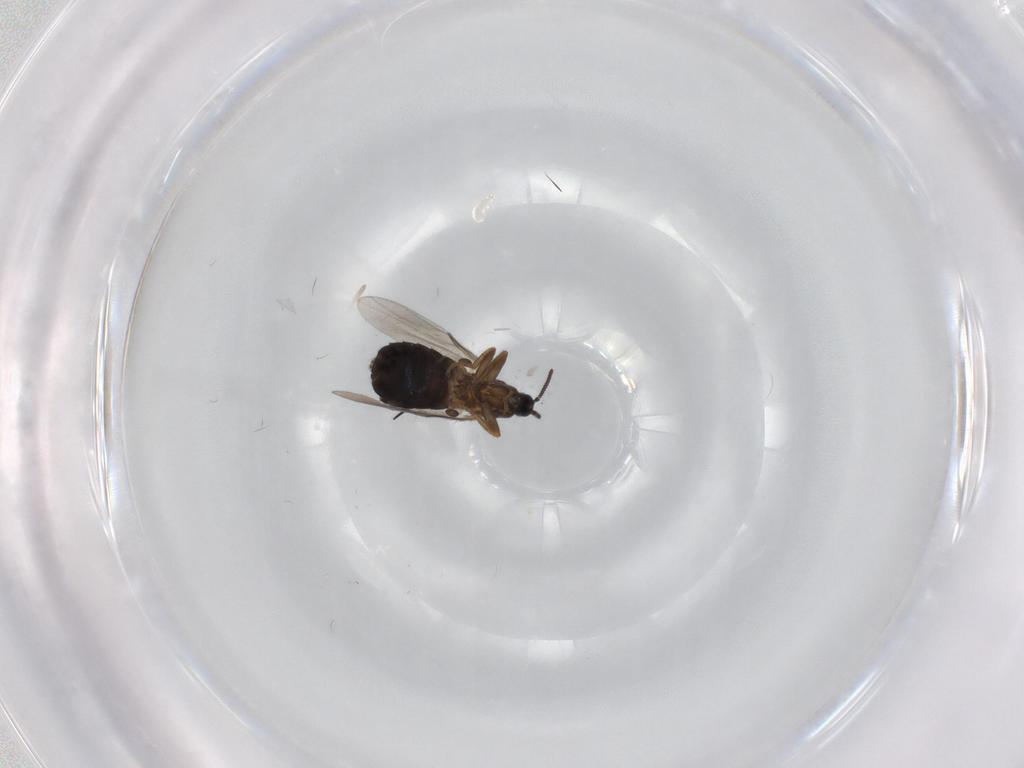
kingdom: Animalia
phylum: Arthropoda
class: Insecta
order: Diptera
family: Scatopsidae
